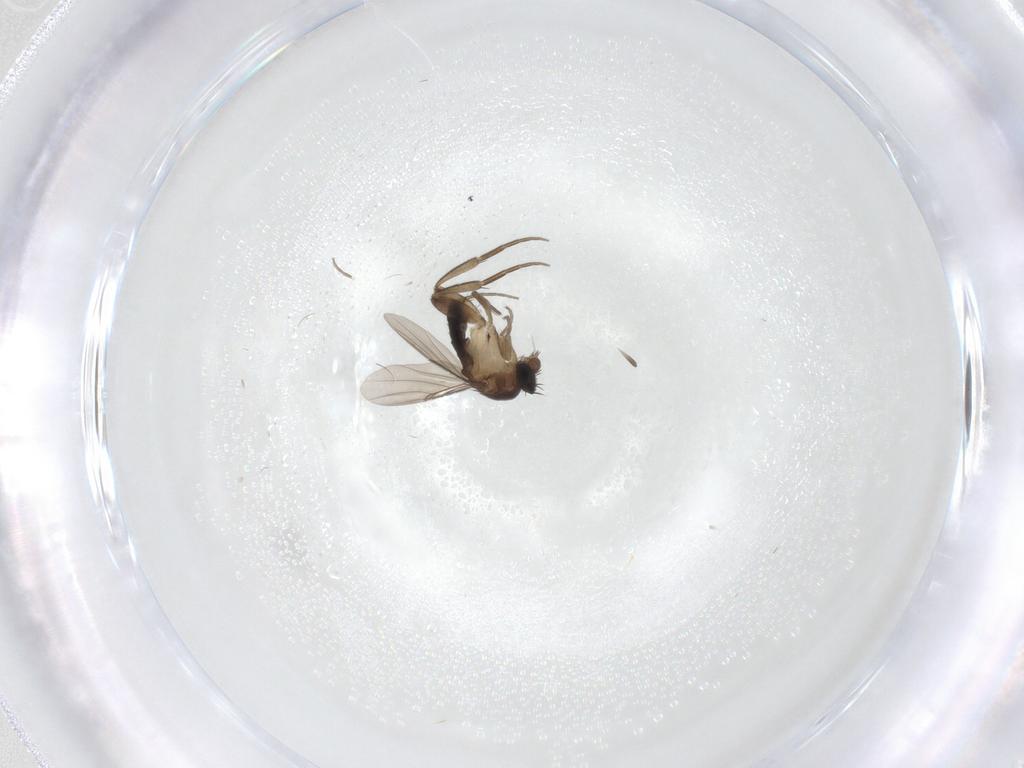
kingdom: Animalia
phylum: Arthropoda
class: Insecta
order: Diptera
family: Phoridae
